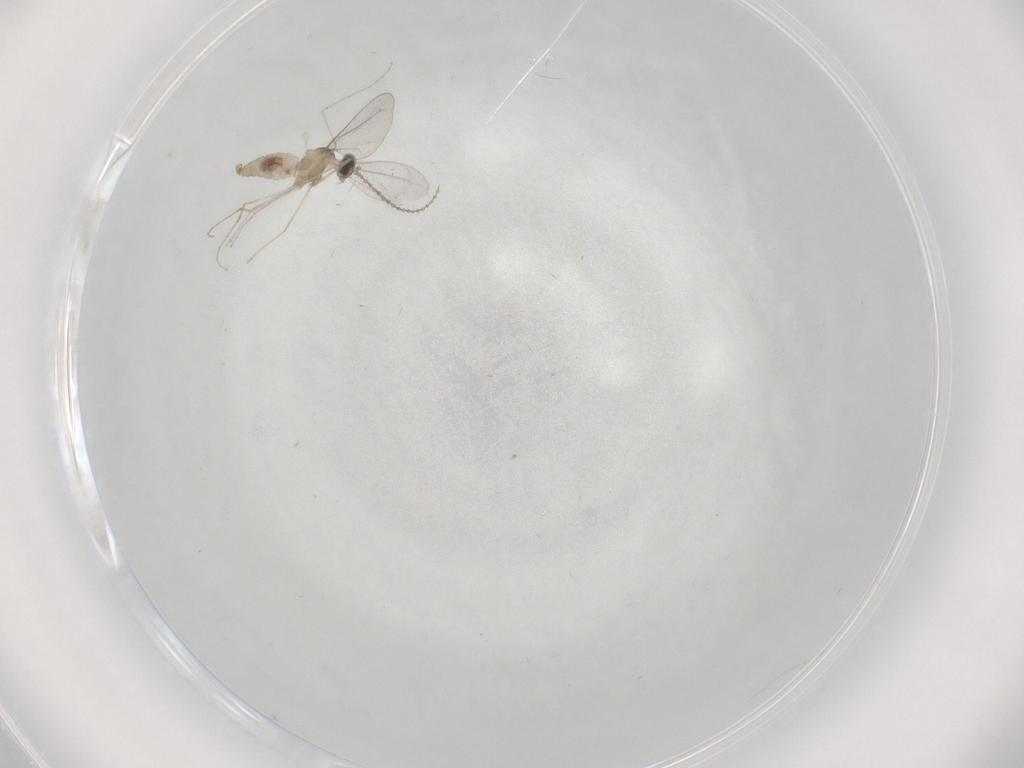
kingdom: Animalia
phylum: Arthropoda
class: Insecta
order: Diptera
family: Cecidomyiidae
